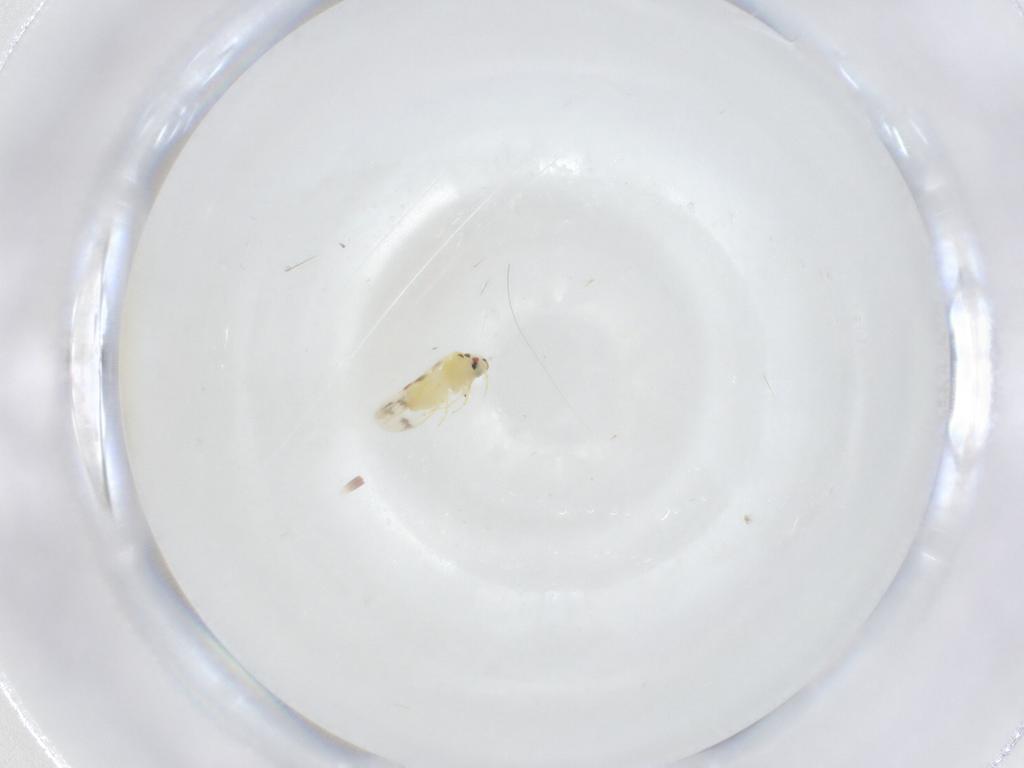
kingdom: Animalia
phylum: Arthropoda
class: Insecta
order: Hemiptera
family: Aleyrodidae
